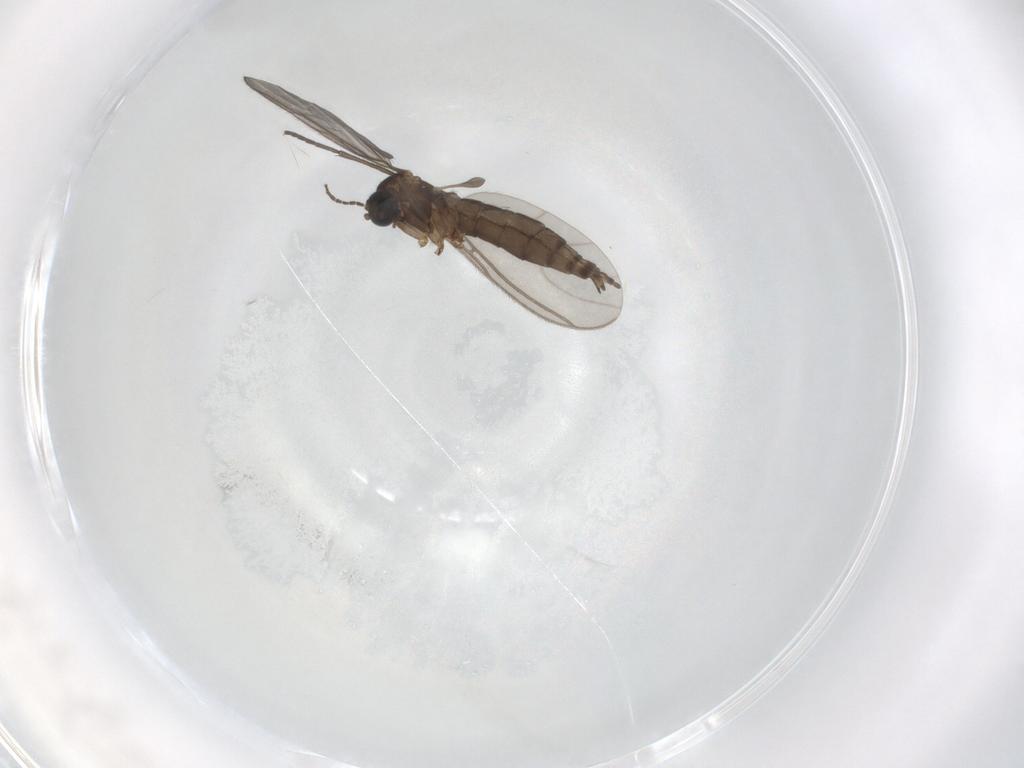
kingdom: Animalia
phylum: Arthropoda
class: Insecta
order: Diptera
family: Sciaridae
